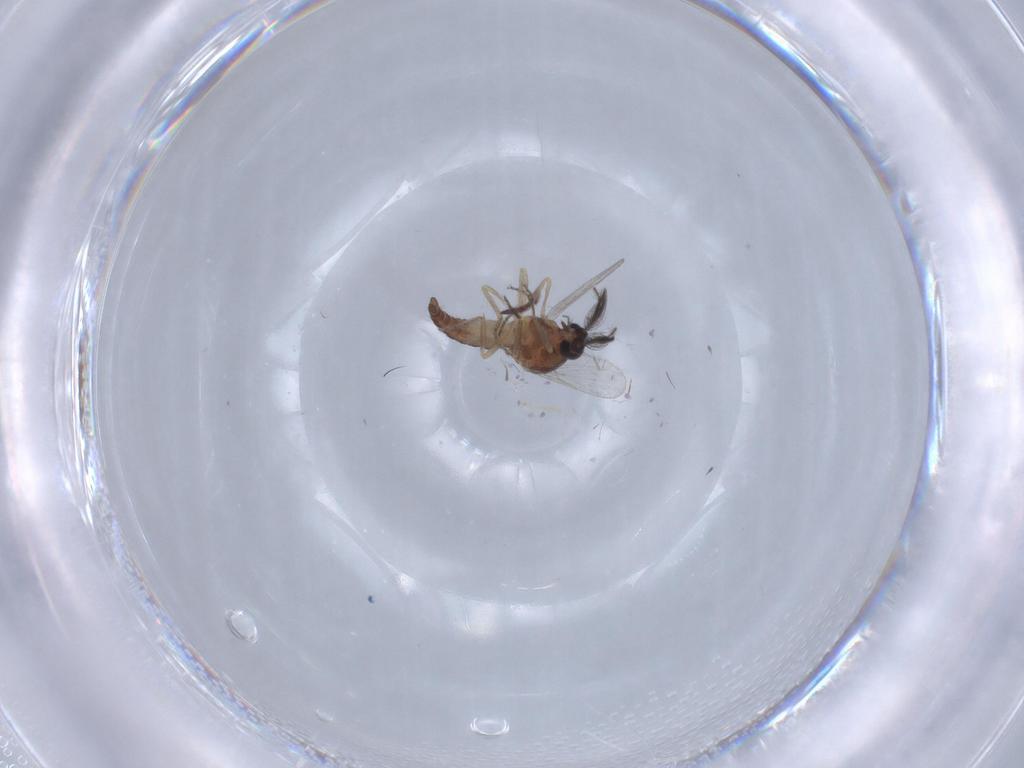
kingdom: Animalia
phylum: Arthropoda
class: Insecta
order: Diptera
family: Ceratopogonidae
